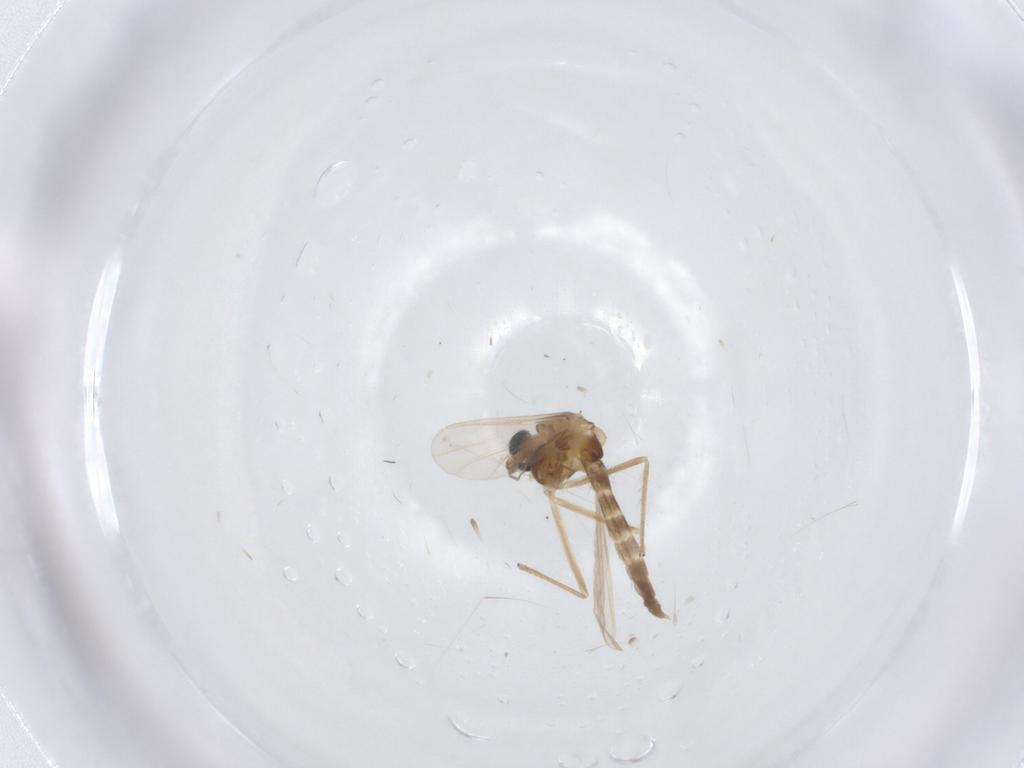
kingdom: Animalia
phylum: Arthropoda
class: Insecta
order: Diptera
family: Chironomidae
